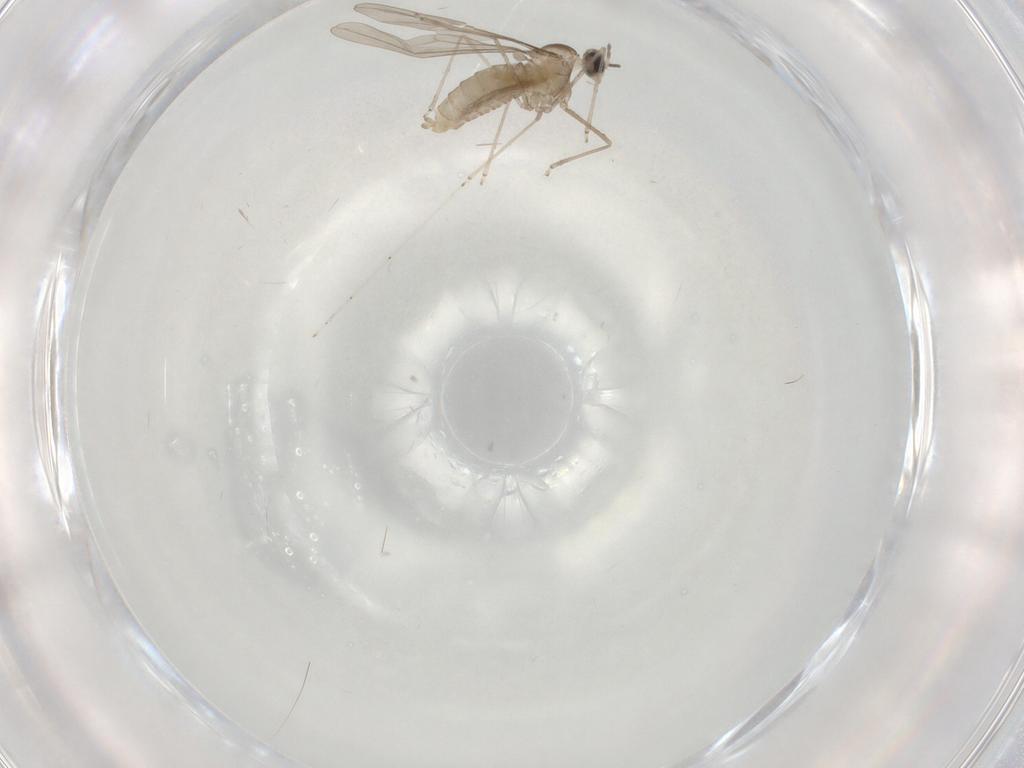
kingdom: Animalia
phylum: Arthropoda
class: Insecta
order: Diptera
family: Cecidomyiidae
